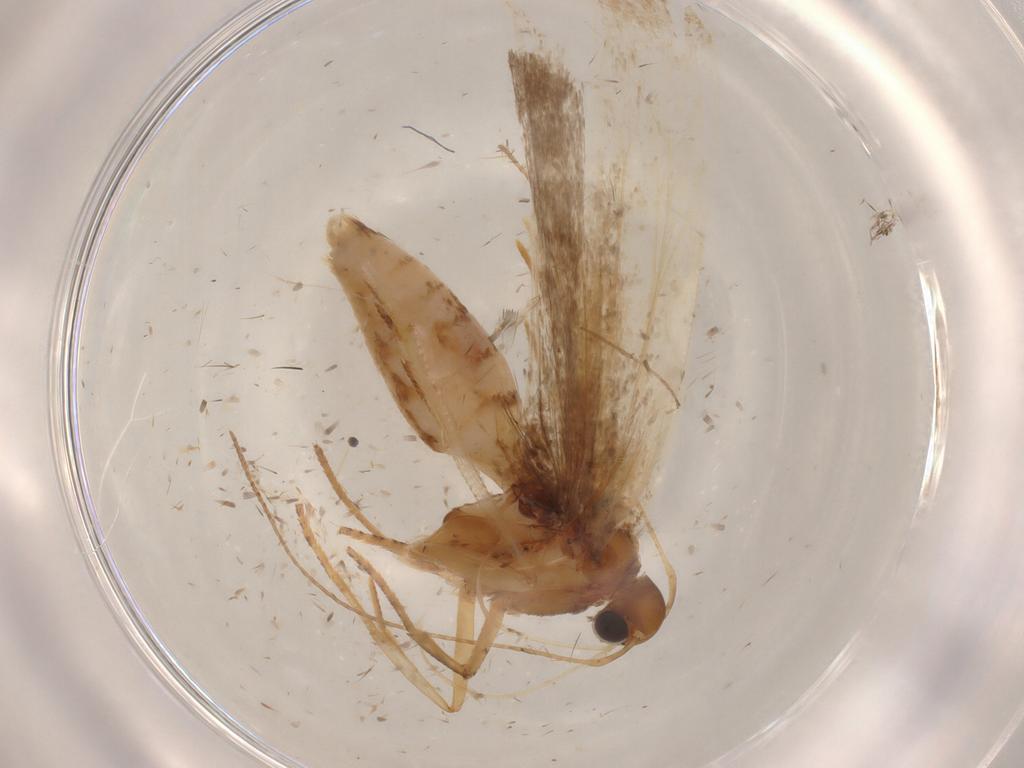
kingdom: Animalia
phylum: Arthropoda
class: Insecta
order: Lepidoptera
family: Gelechiidae
